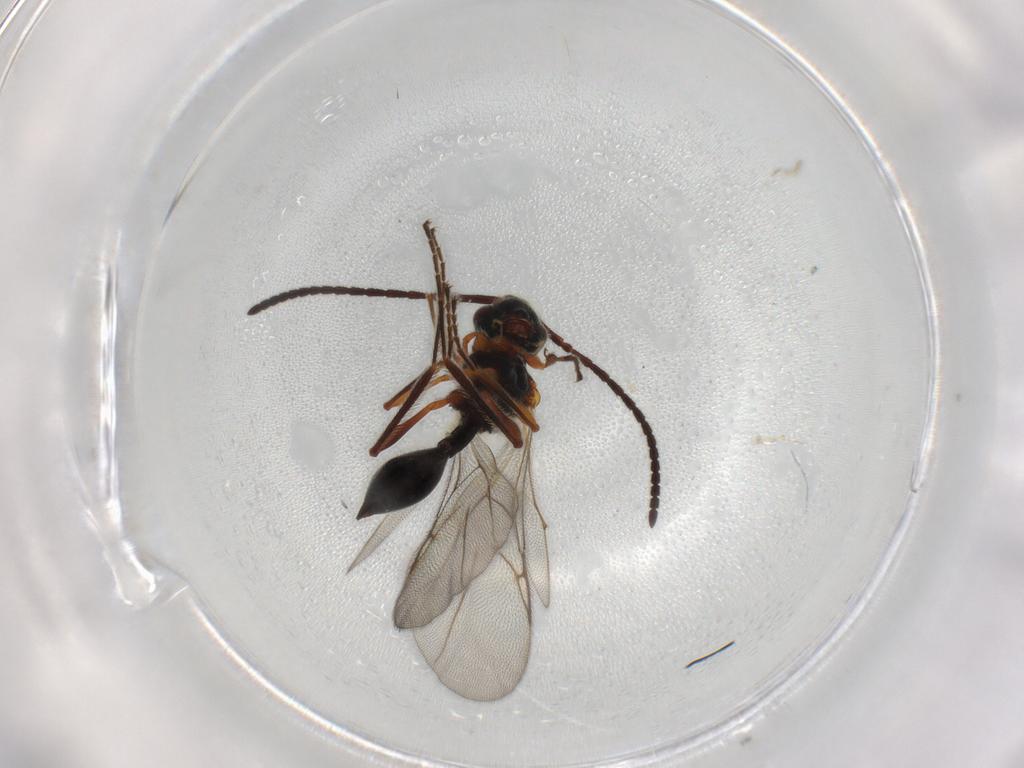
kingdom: Animalia
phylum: Arthropoda
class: Insecta
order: Hymenoptera
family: Diapriidae
